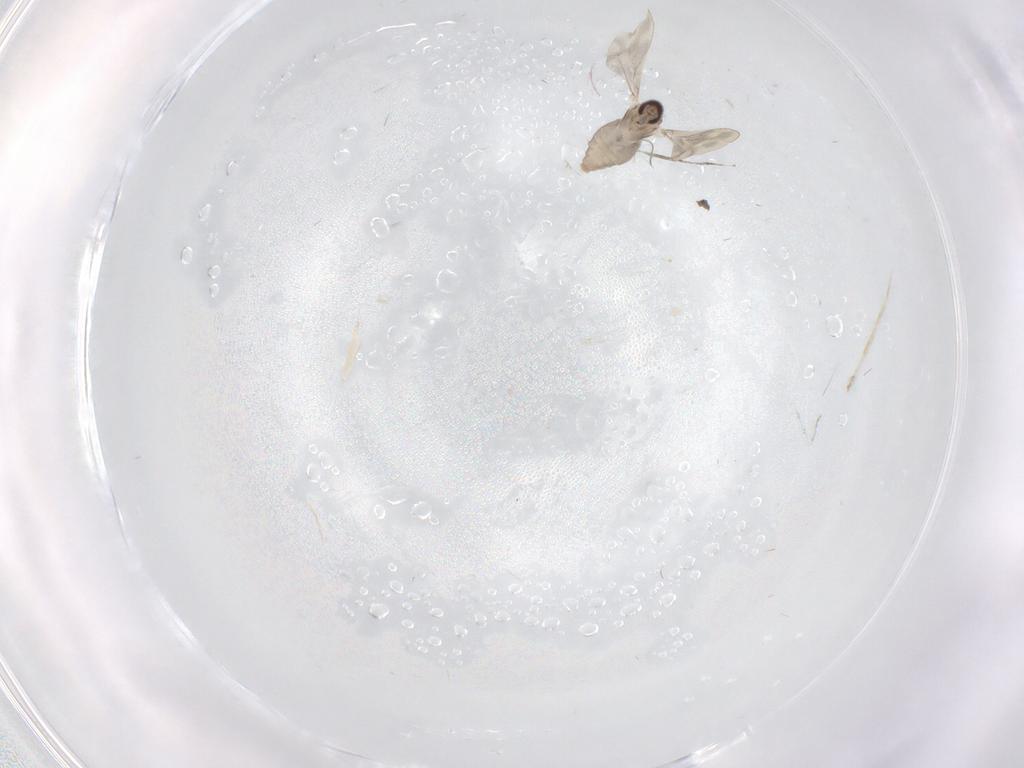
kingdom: Animalia
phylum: Arthropoda
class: Insecta
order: Diptera
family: Cecidomyiidae
